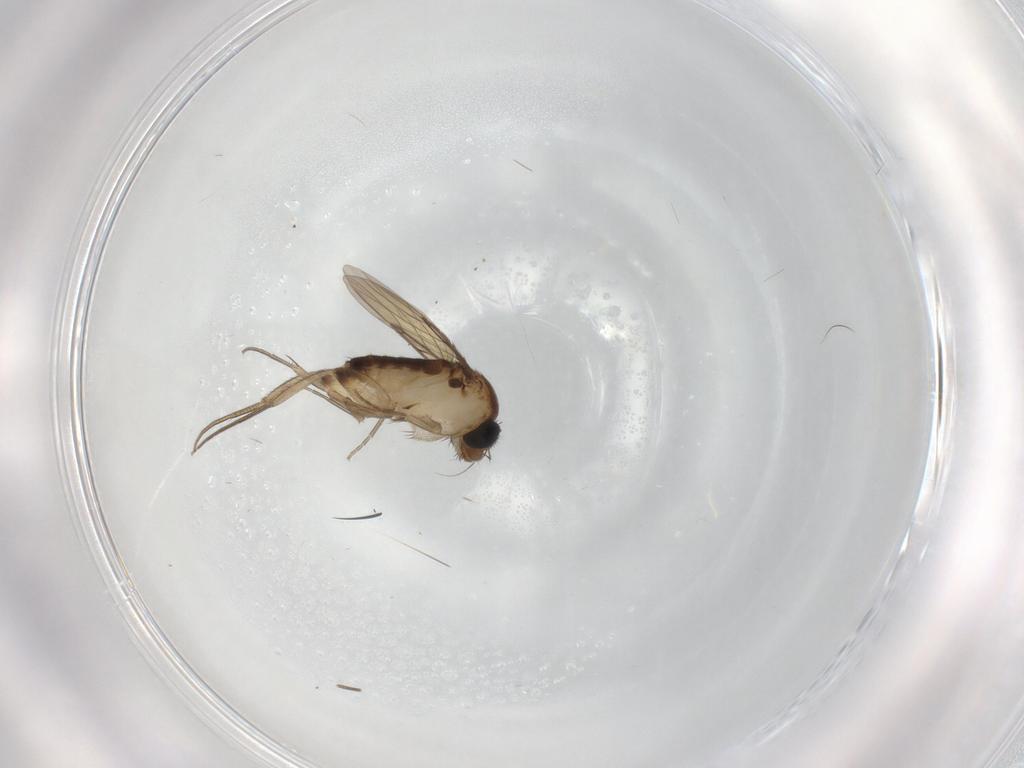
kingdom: Animalia
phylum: Arthropoda
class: Insecta
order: Diptera
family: Phoridae
